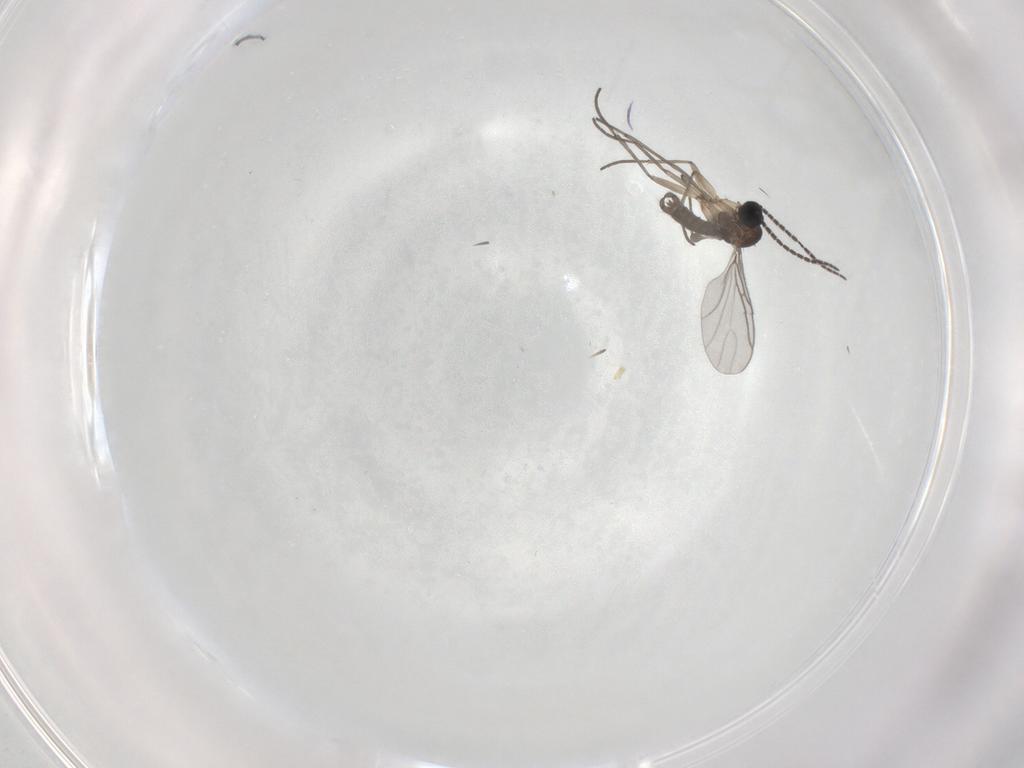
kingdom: Animalia
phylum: Arthropoda
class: Insecta
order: Diptera
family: Sciaridae
